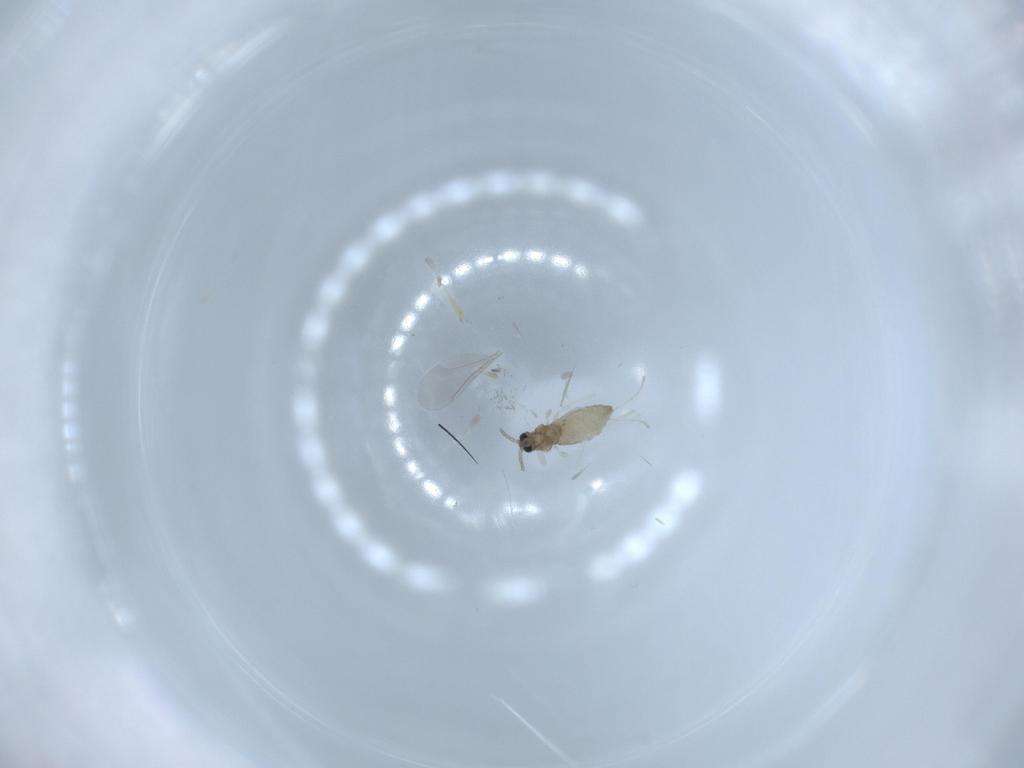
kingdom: Animalia
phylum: Arthropoda
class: Insecta
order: Diptera
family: Cecidomyiidae
